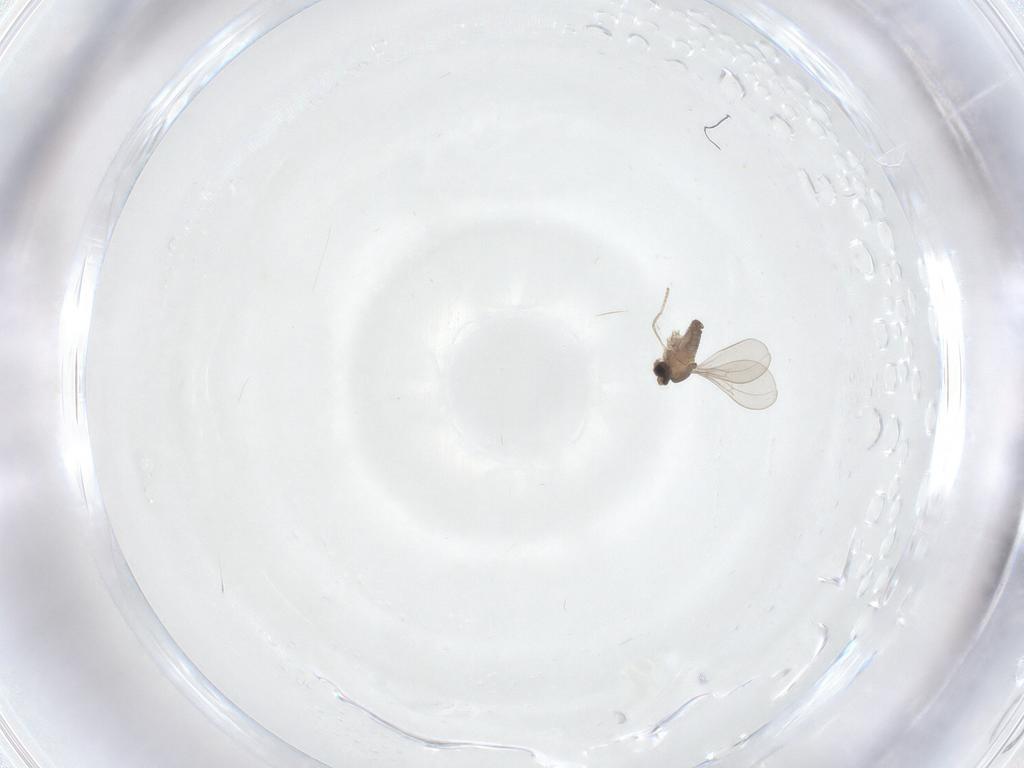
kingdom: Animalia
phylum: Arthropoda
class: Insecta
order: Diptera
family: Cecidomyiidae
